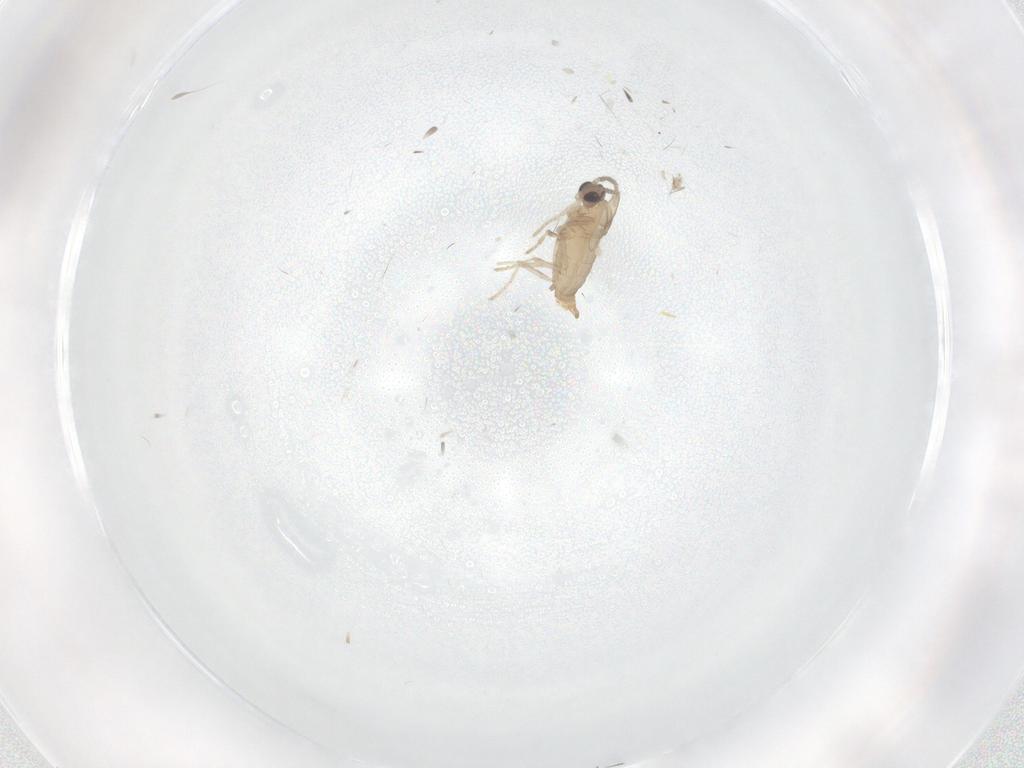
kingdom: Animalia
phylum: Arthropoda
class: Insecta
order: Diptera
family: Cecidomyiidae
